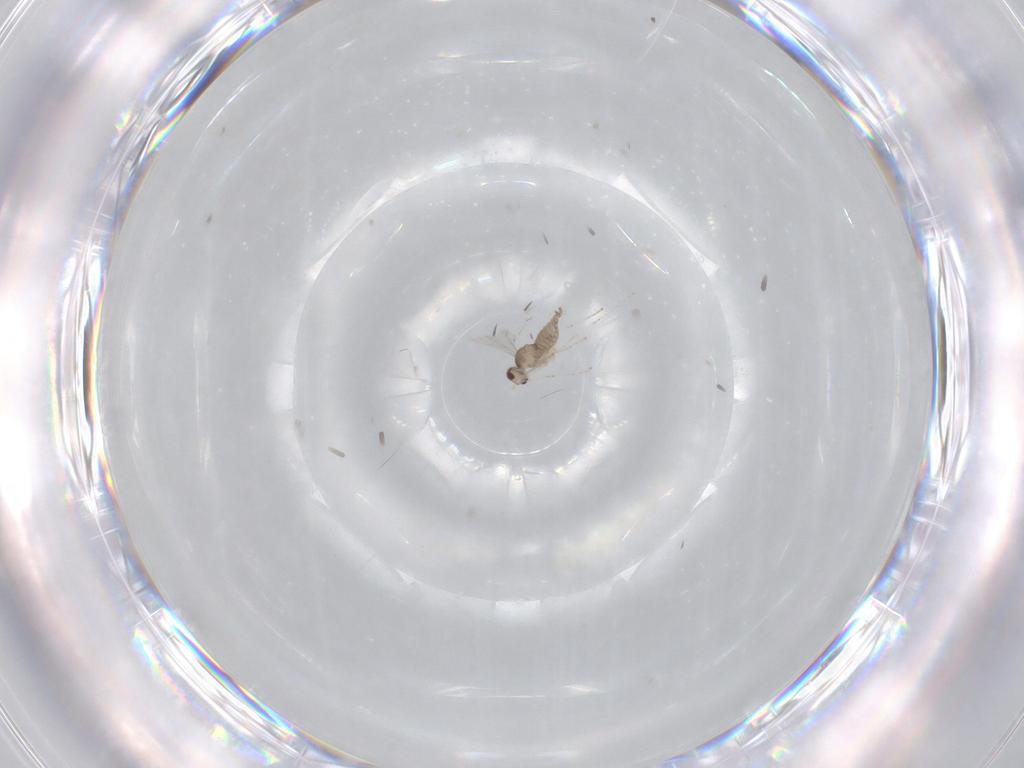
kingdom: Animalia
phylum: Arthropoda
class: Insecta
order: Diptera
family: Cecidomyiidae
